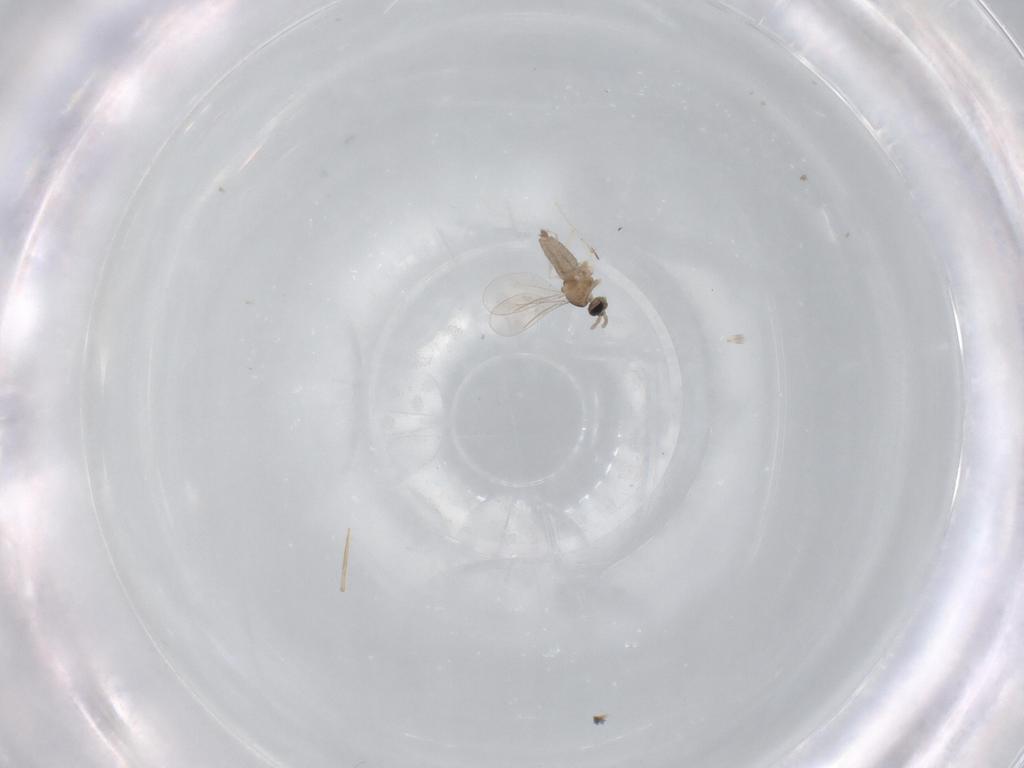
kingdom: Animalia
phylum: Arthropoda
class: Insecta
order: Diptera
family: Cecidomyiidae
